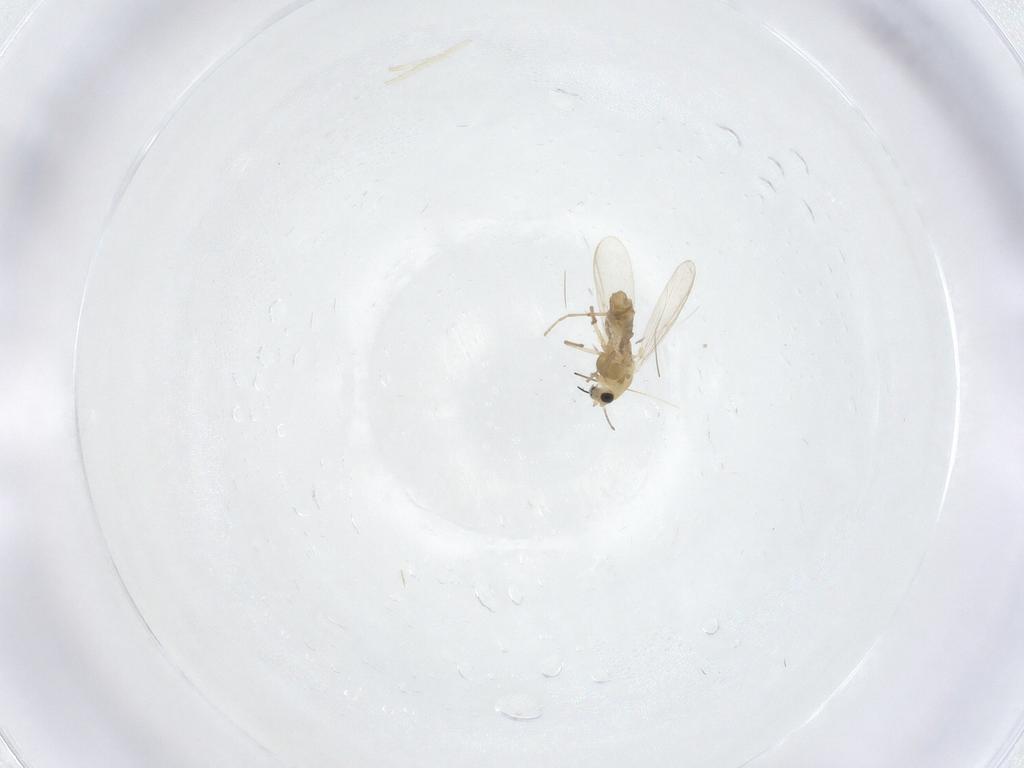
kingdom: Animalia
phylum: Arthropoda
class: Insecta
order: Diptera
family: Chironomidae
